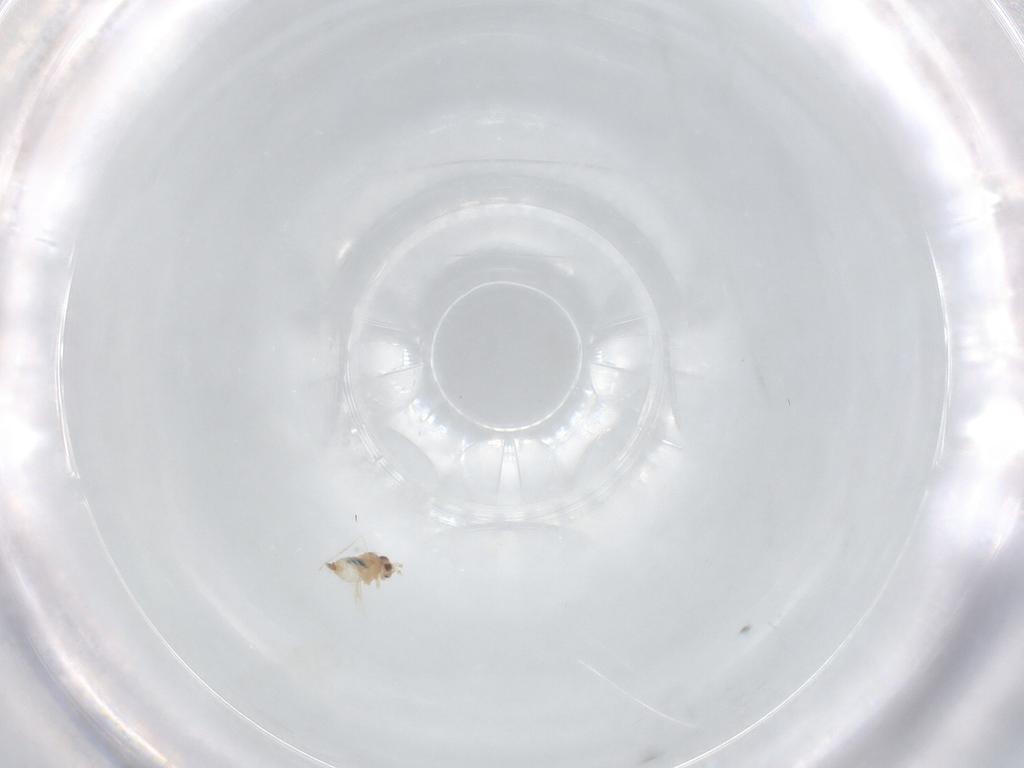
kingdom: Animalia
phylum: Arthropoda
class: Insecta
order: Diptera
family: Cecidomyiidae
